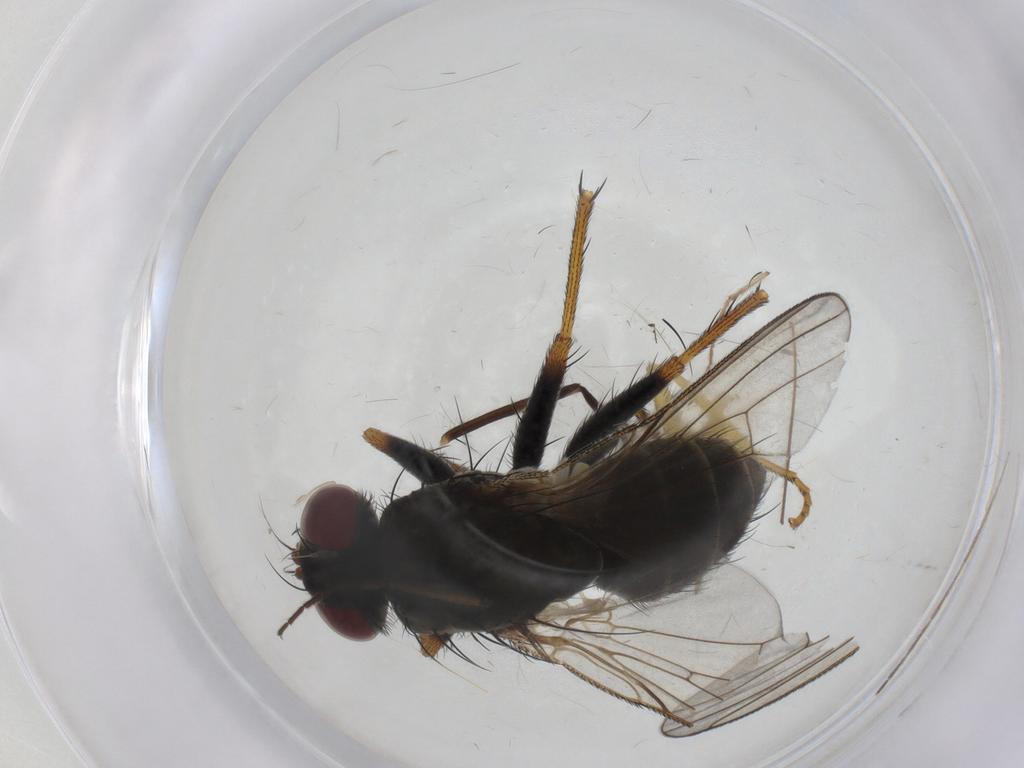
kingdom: Animalia
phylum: Arthropoda
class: Insecta
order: Diptera
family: Chironomidae
